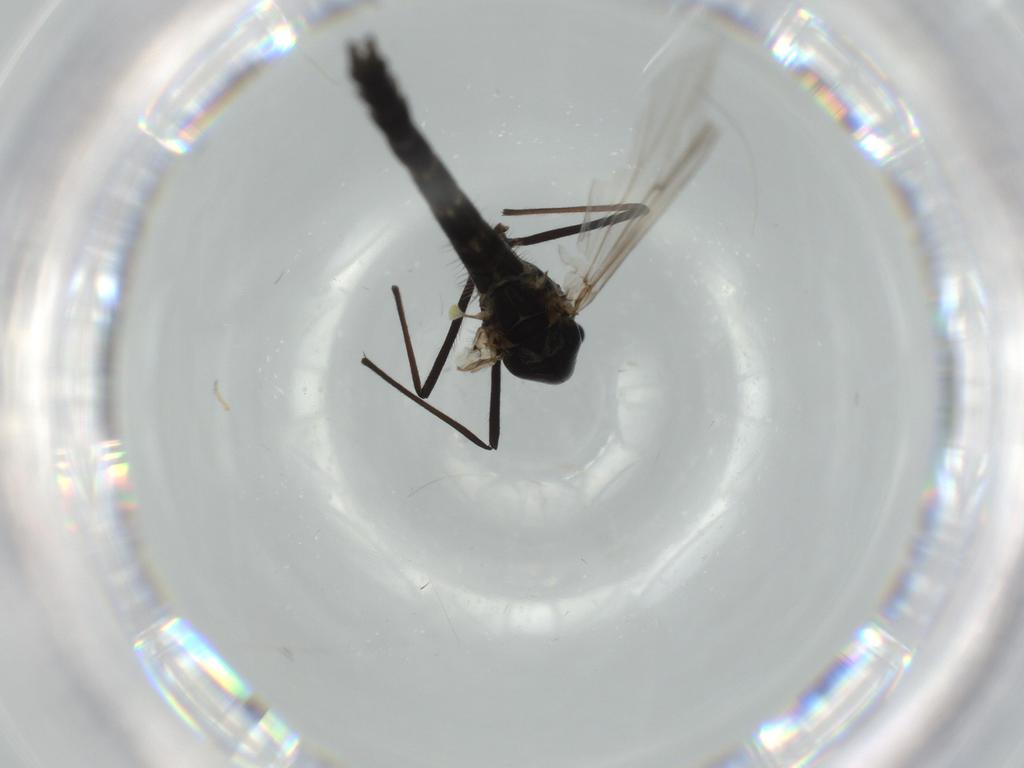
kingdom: Animalia
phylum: Arthropoda
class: Insecta
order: Diptera
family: Chironomidae
